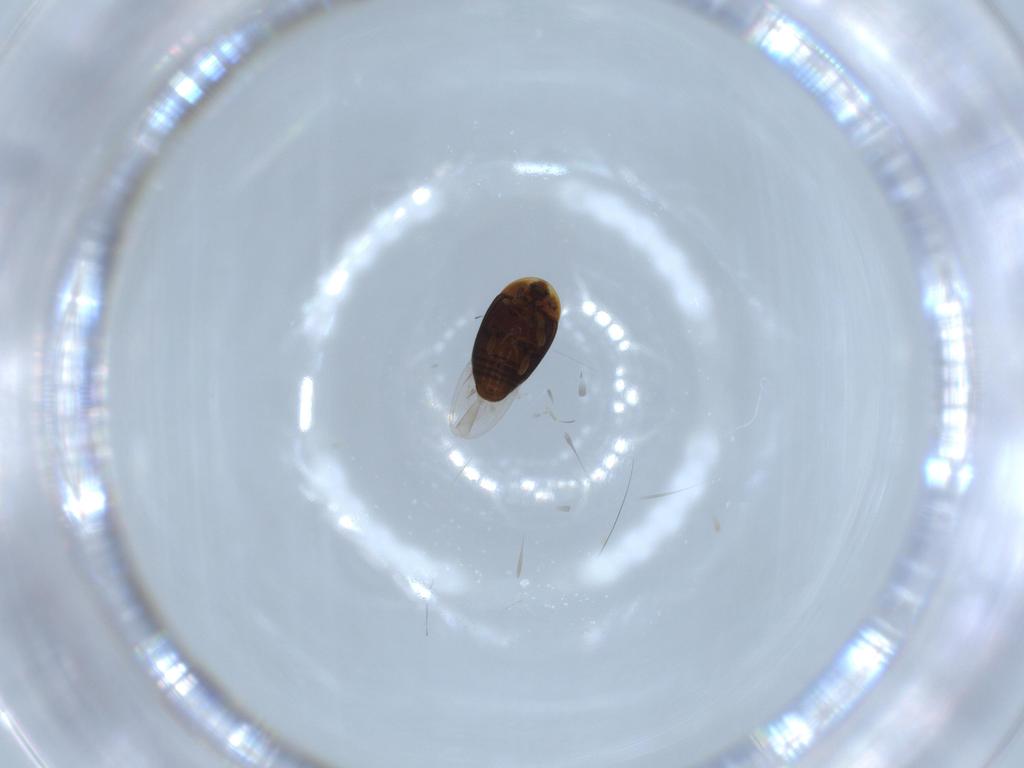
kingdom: Animalia
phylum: Arthropoda
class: Insecta
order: Coleoptera
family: Corylophidae
